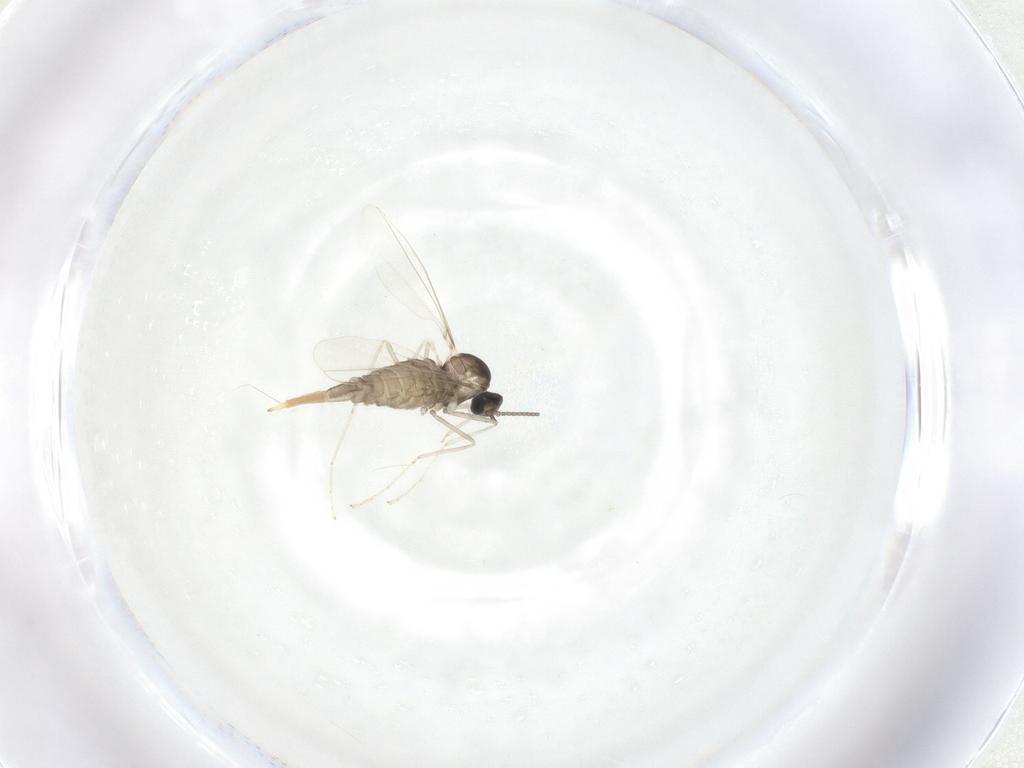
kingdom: Animalia
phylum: Arthropoda
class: Insecta
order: Diptera
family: Cecidomyiidae
